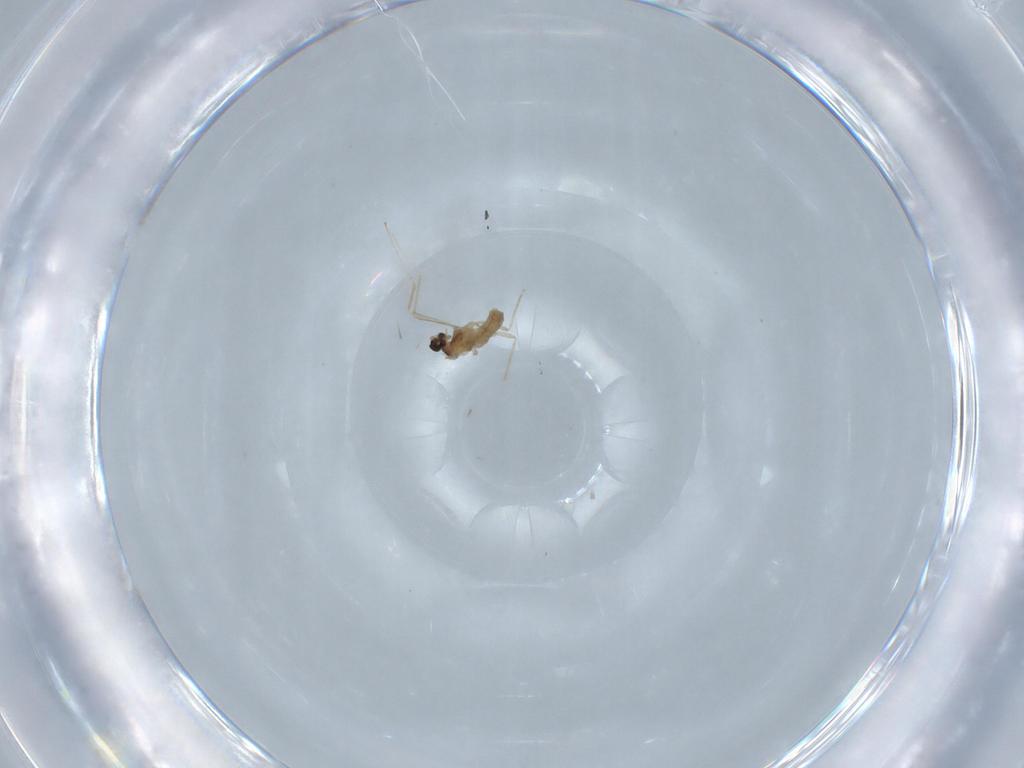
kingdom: Animalia
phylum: Arthropoda
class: Insecta
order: Diptera
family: Cecidomyiidae
